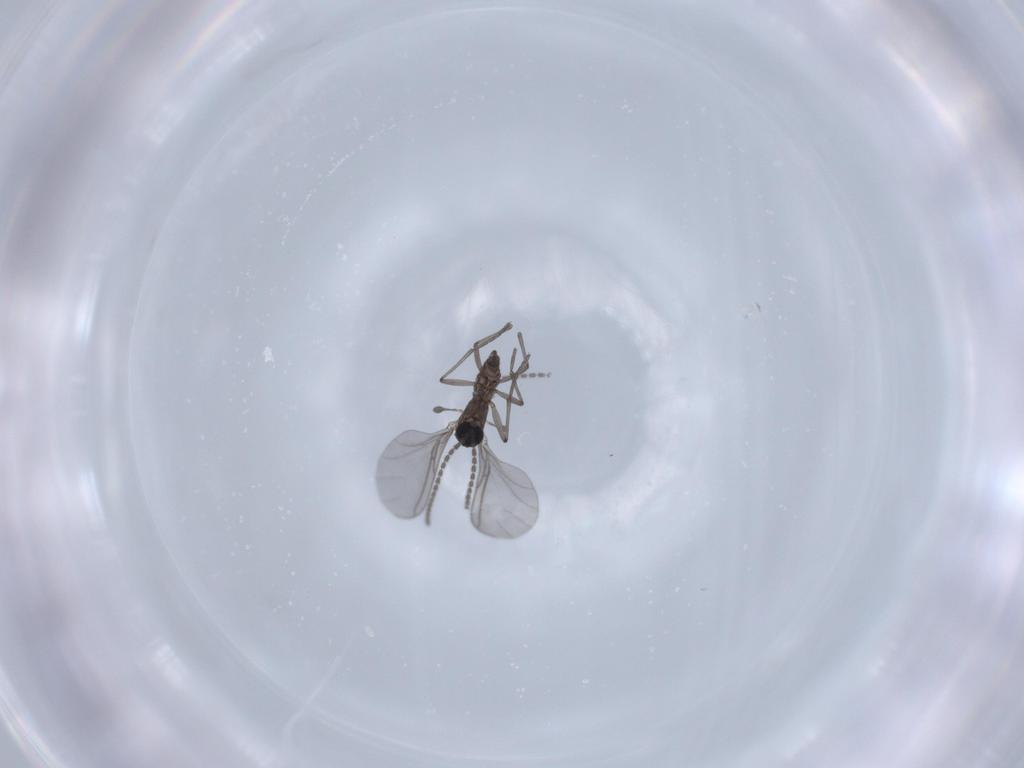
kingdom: Animalia
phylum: Arthropoda
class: Insecta
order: Diptera
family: Sciaridae
